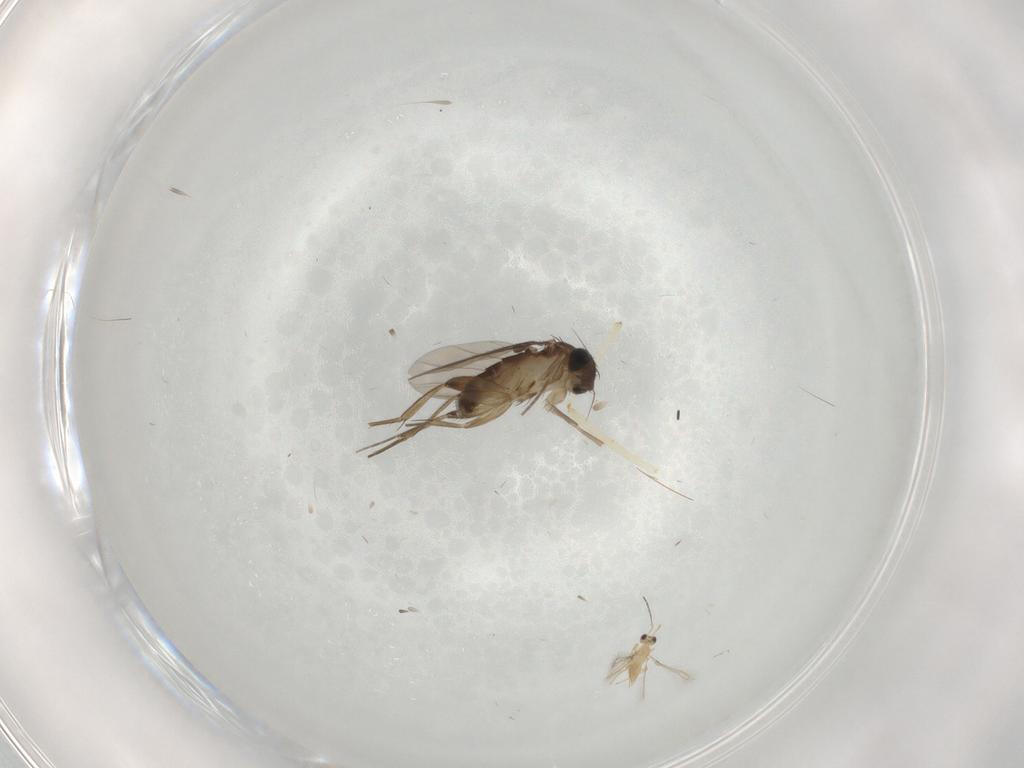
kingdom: Animalia
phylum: Arthropoda
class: Insecta
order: Diptera
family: Phoridae
